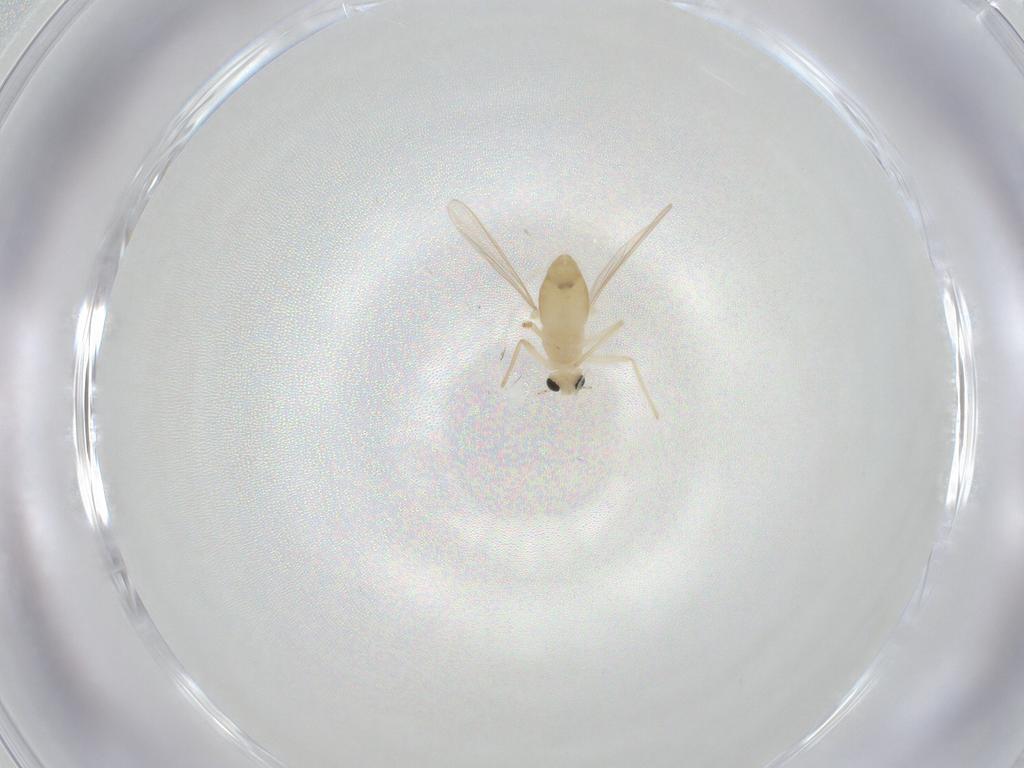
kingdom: Animalia
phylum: Arthropoda
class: Insecta
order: Diptera
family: Chironomidae
